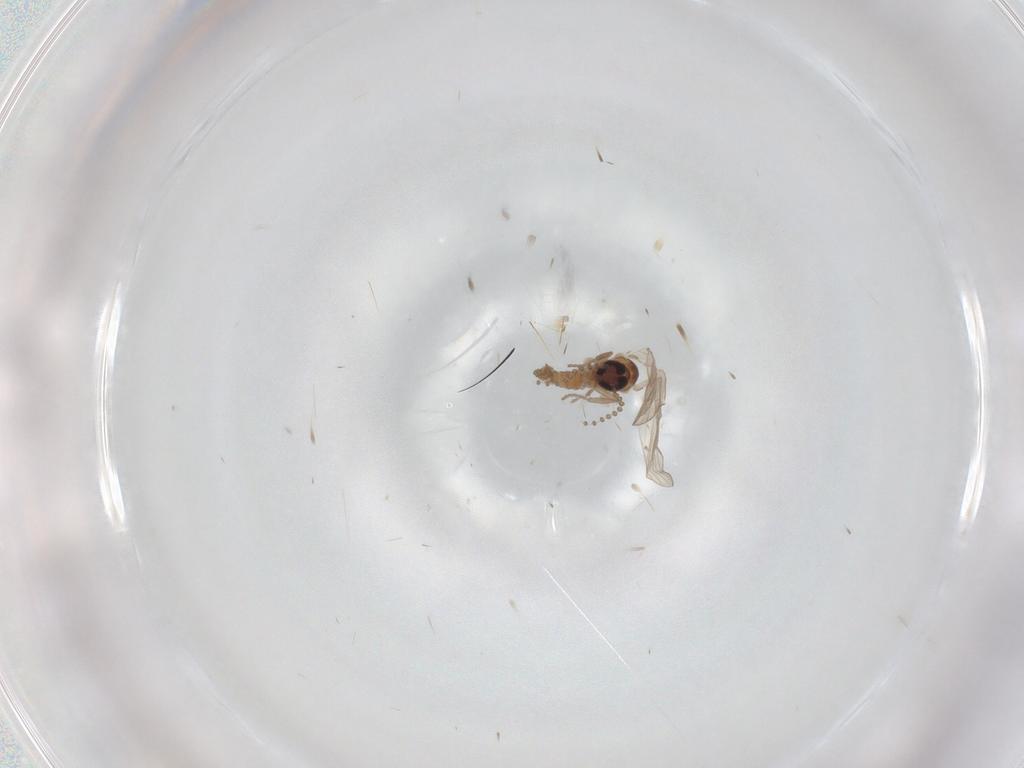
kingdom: Animalia
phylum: Arthropoda
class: Insecta
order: Diptera
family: Psychodidae
